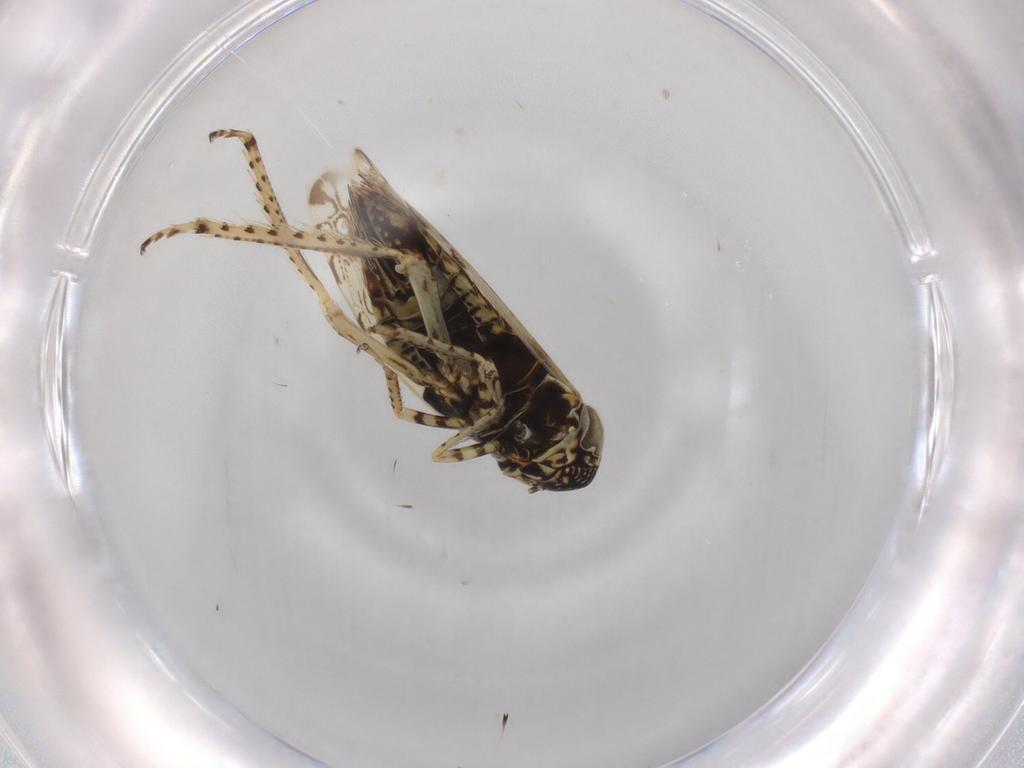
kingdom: Animalia
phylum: Arthropoda
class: Insecta
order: Hemiptera
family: Cicadellidae
